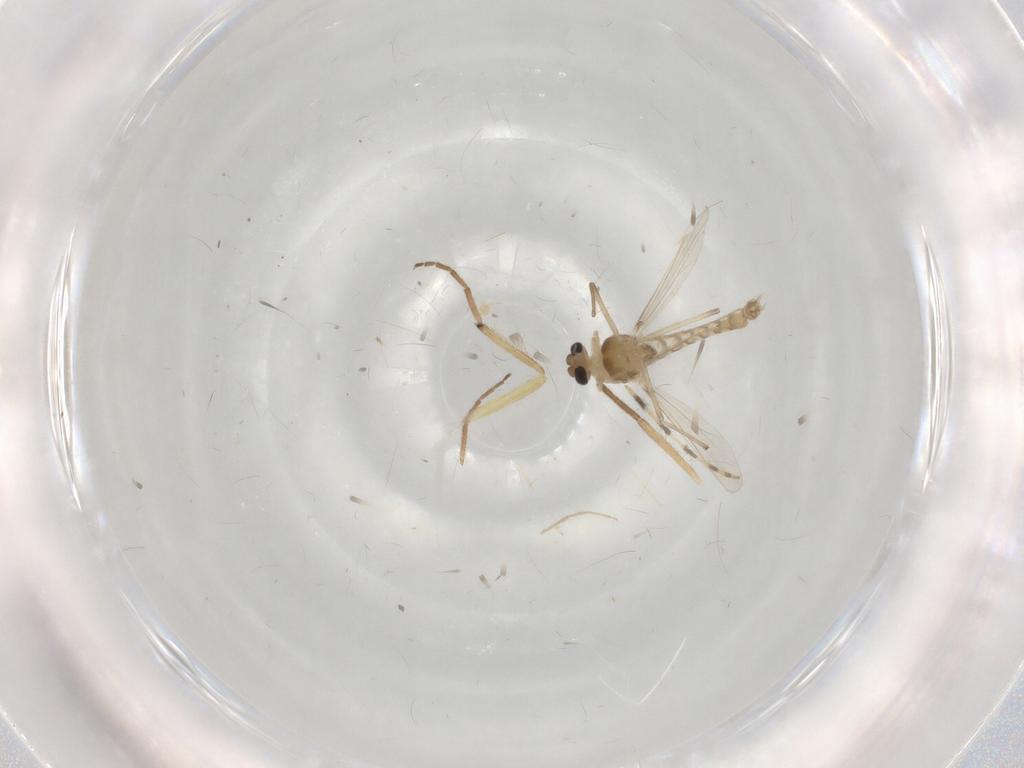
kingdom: Animalia
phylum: Arthropoda
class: Insecta
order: Diptera
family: Chironomidae
